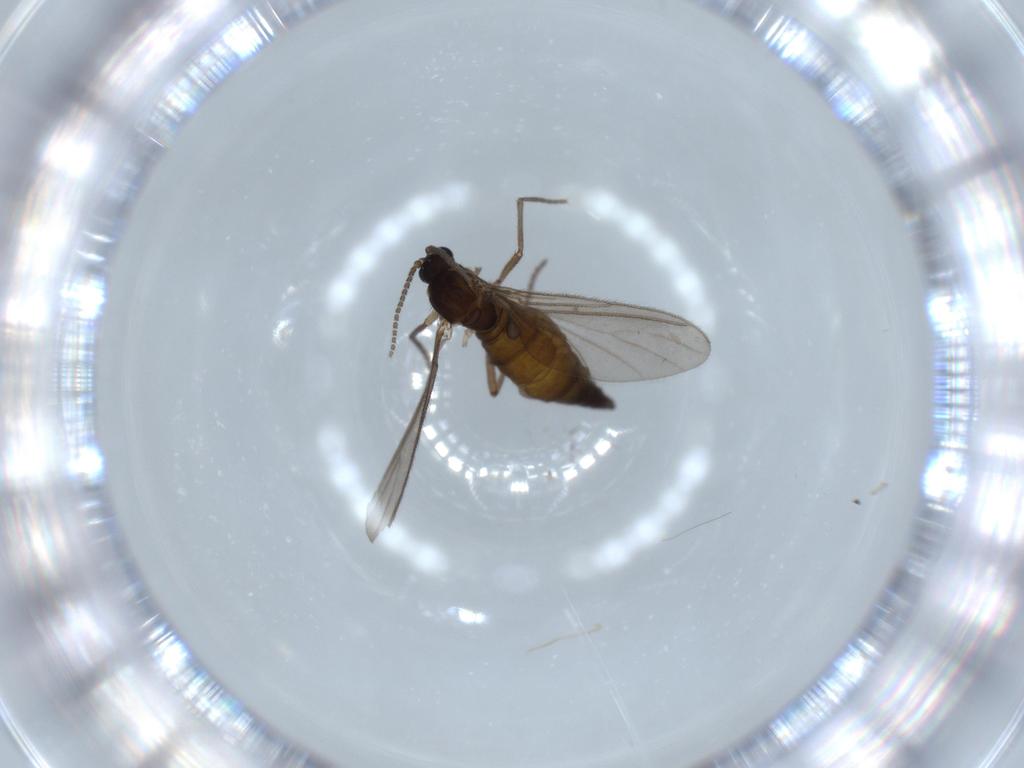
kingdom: Animalia
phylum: Arthropoda
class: Insecta
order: Diptera
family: Sciaridae
